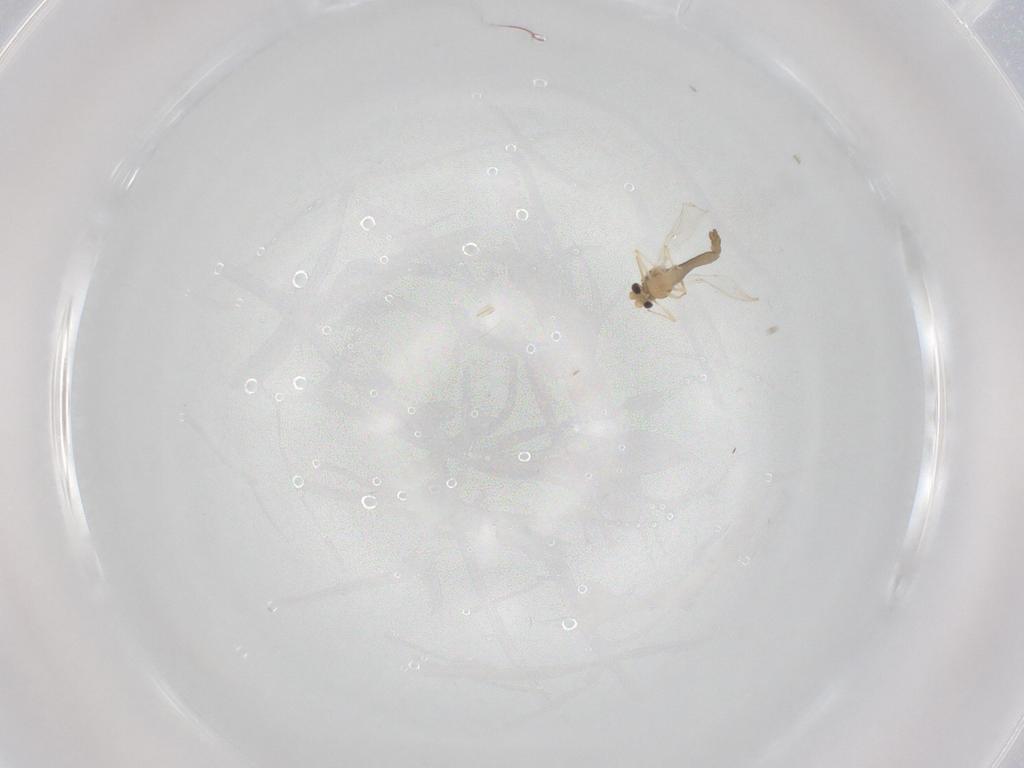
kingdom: Animalia
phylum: Arthropoda
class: Insecta
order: Diptera
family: Chironomidae
